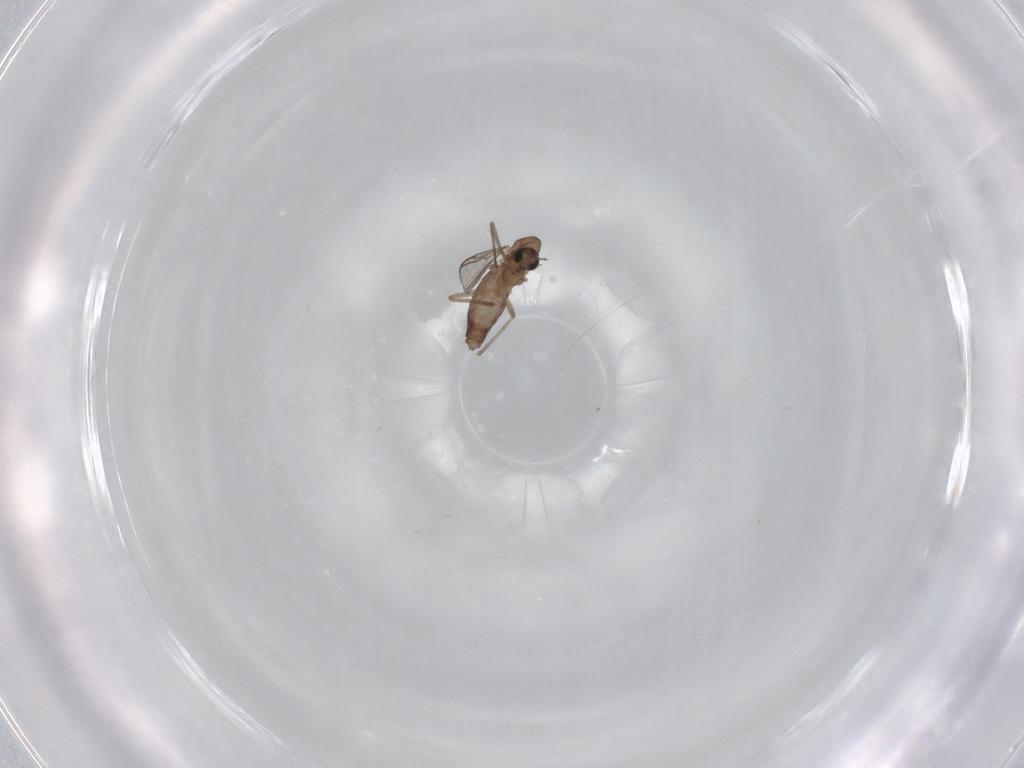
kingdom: Animalia
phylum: Arthropoda
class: Insecta
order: Diptera
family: Chironomidae
